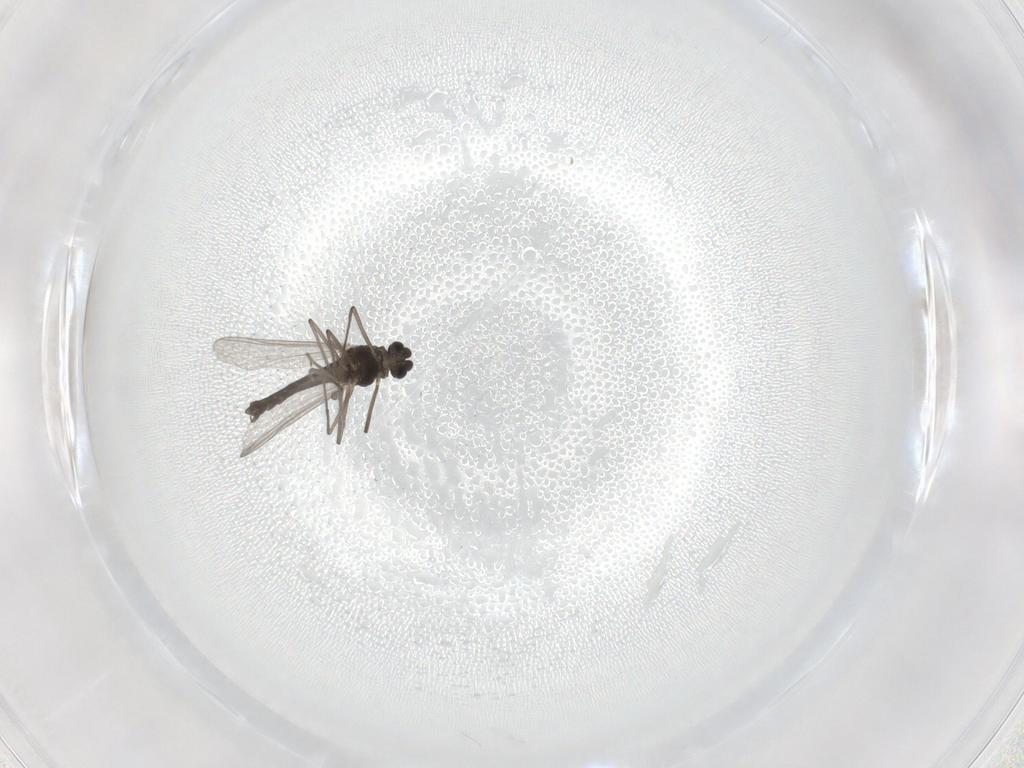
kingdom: Animalia
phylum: Arthropoda
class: Insecta
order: Diptera
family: Chironomidae
